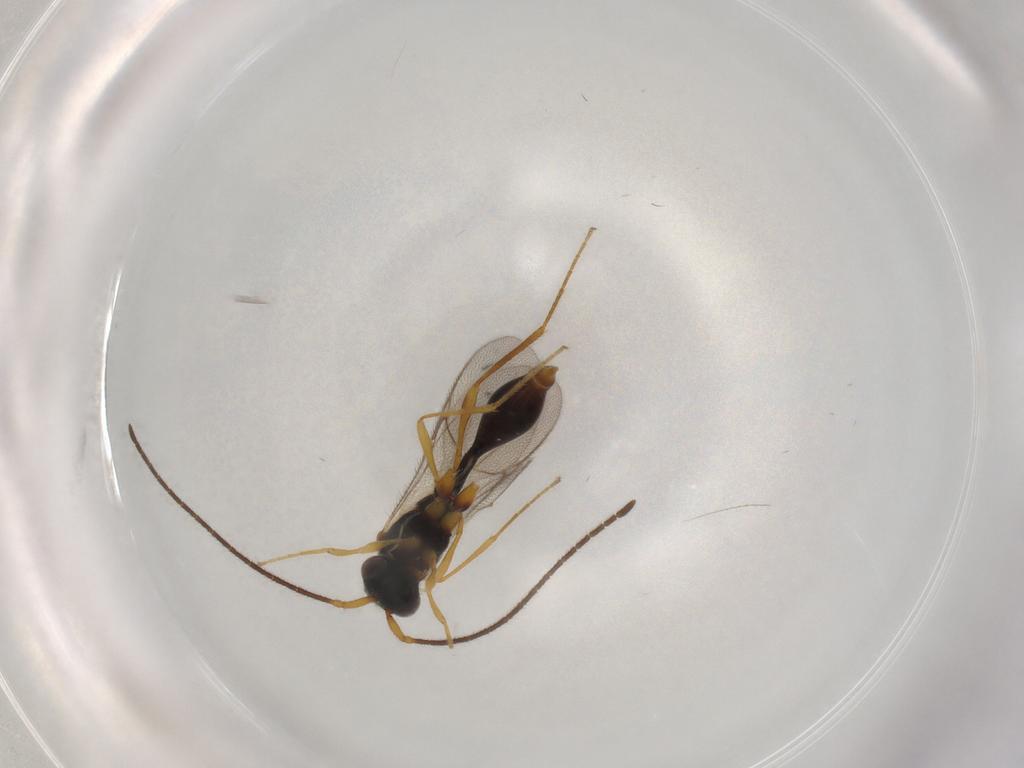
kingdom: Animalia
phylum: Arthropoda
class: Insecta
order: Hymenoptera
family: Diapriidae
